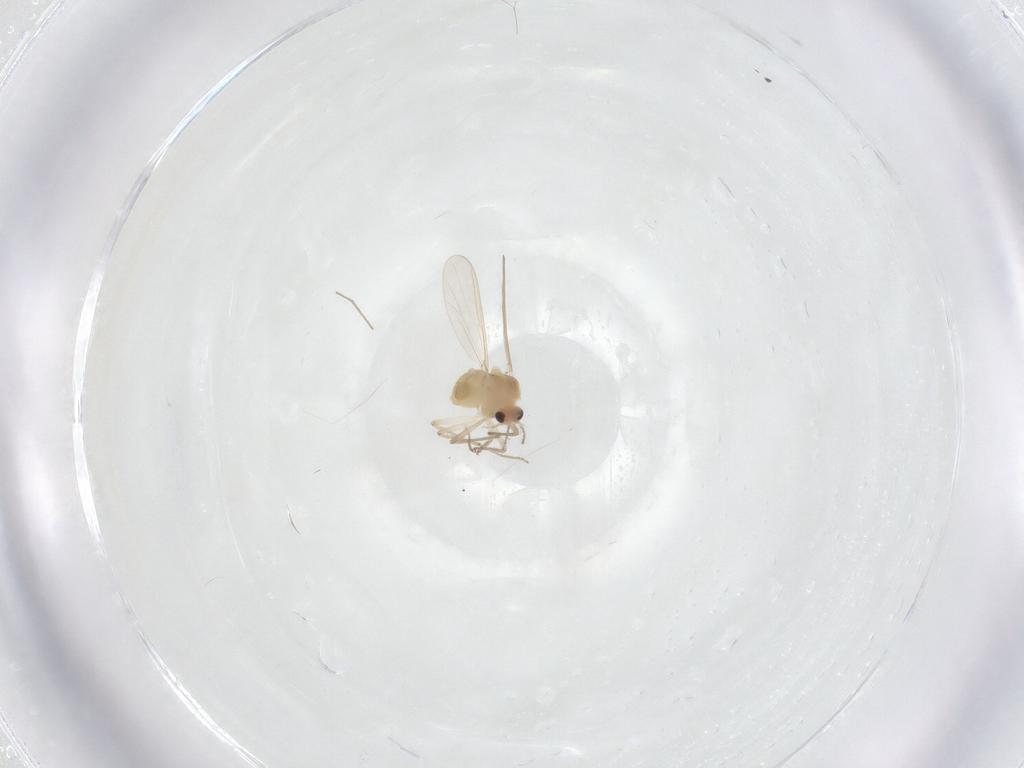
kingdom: Animalia
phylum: Arthropoda
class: Insecta
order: Diptera
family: Chironomidae
